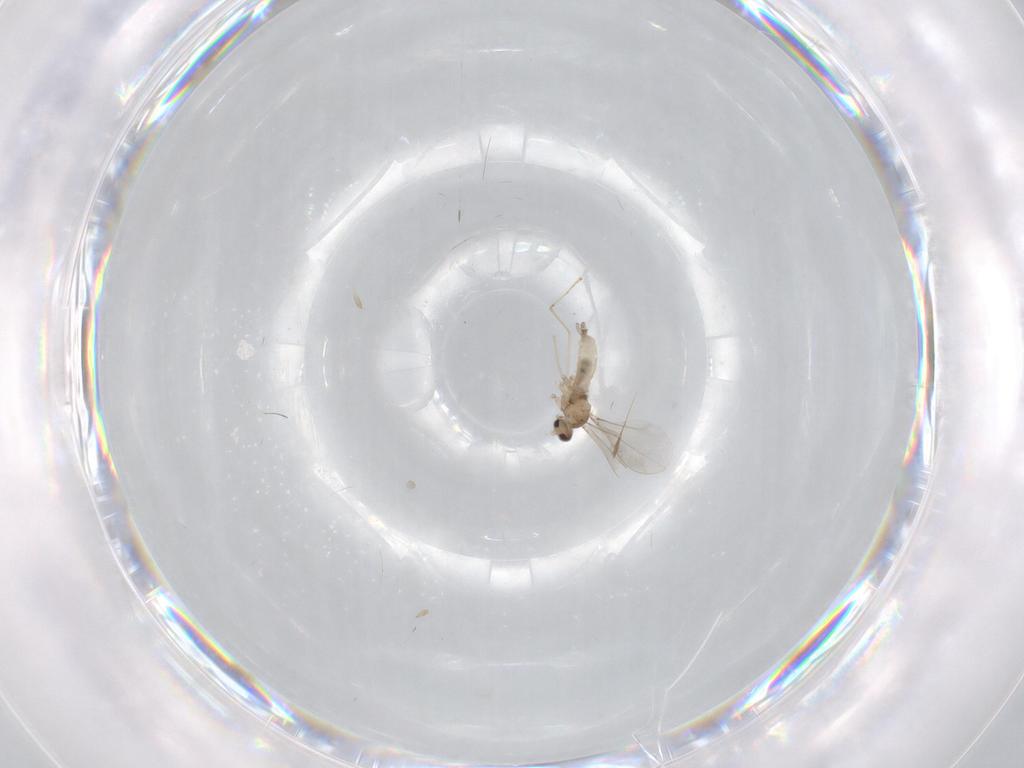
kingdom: Animalia
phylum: Arthropoda
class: Insecta
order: Diptera
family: Cecidomyiidae
